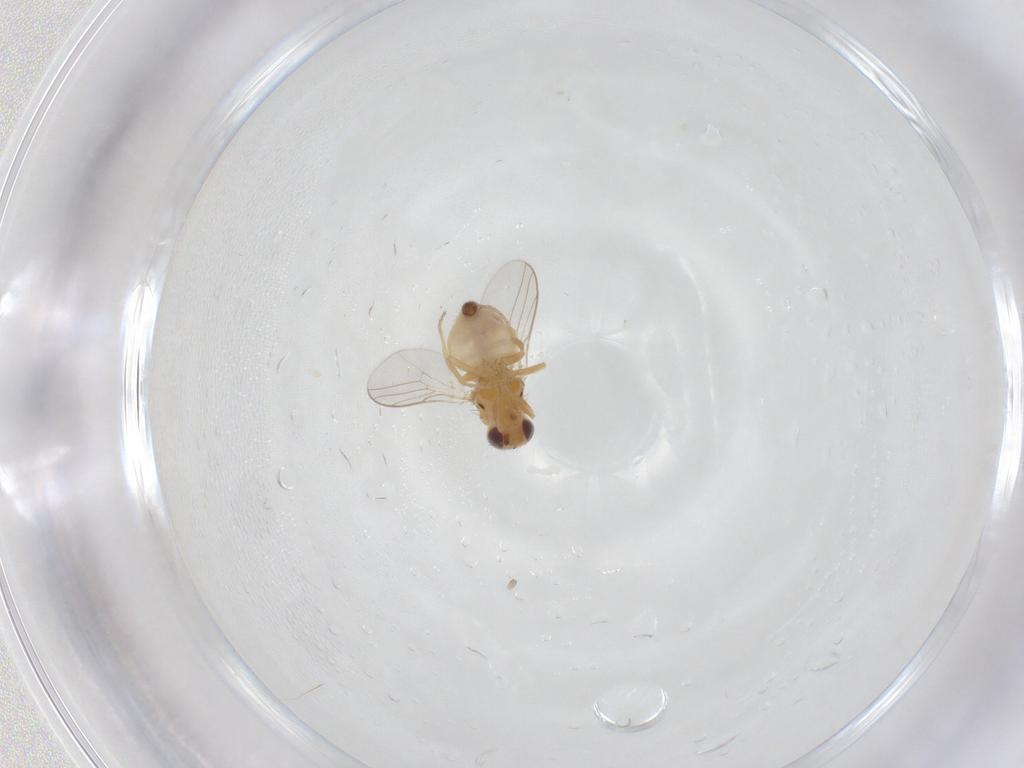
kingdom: Animalia
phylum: Arthropoda
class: Insecta
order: Diptera
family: Chloropidae
